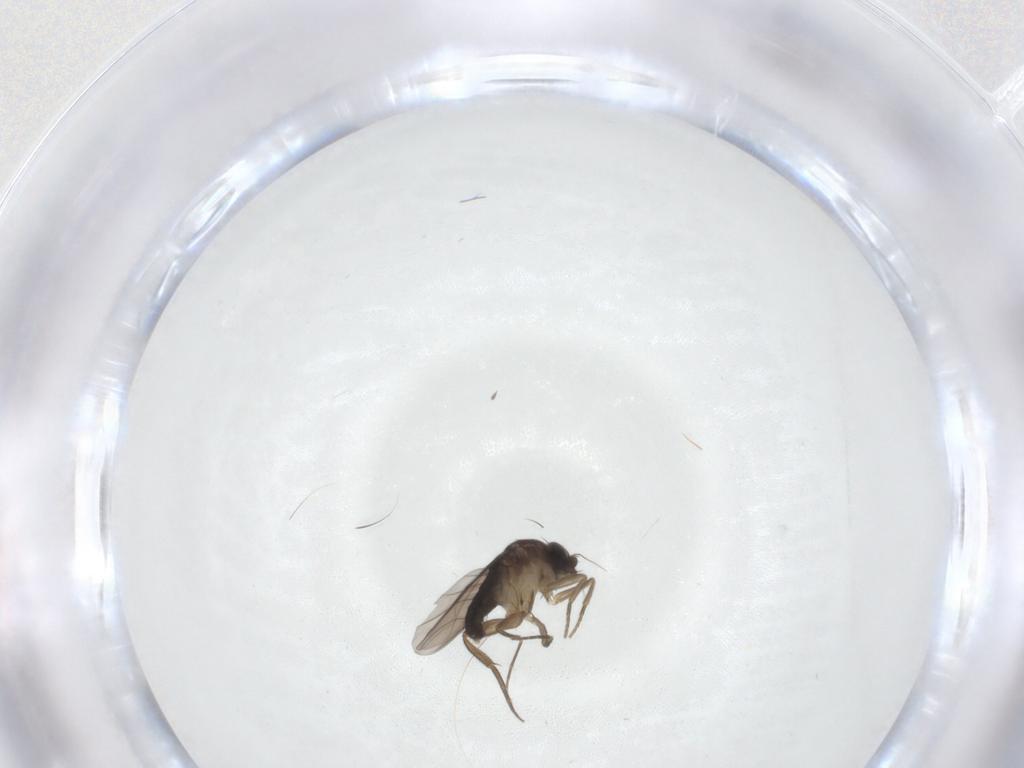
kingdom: Animalia
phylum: Arthropoda
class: Insecta
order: Diptera
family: Phoridae
